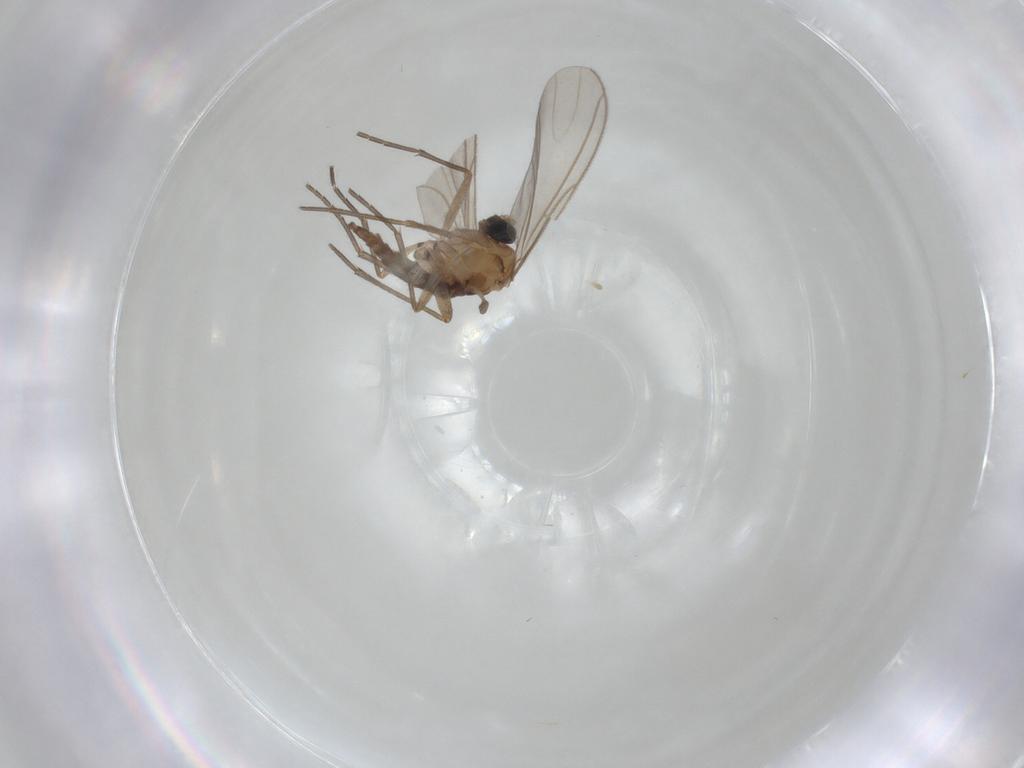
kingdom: Animalia
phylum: Arthropoda
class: Insecta
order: Diptera
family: Sciaridae
